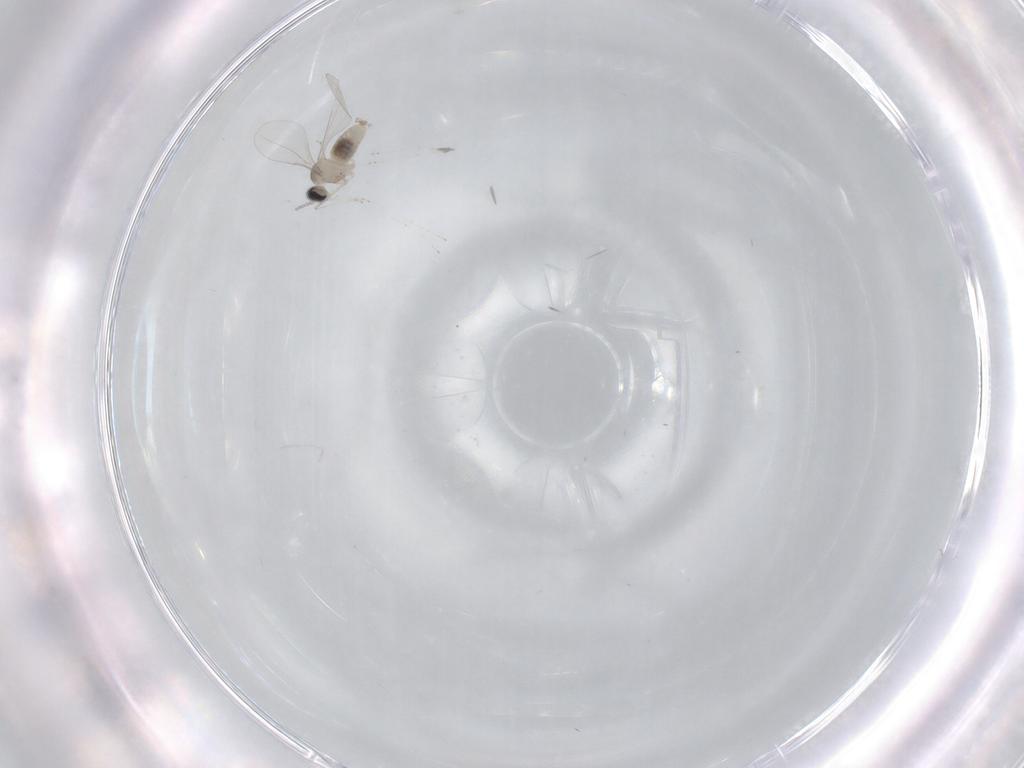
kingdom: Animalia
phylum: Arthropoda
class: Insecta
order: Diptera
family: Cecidomyiidae
